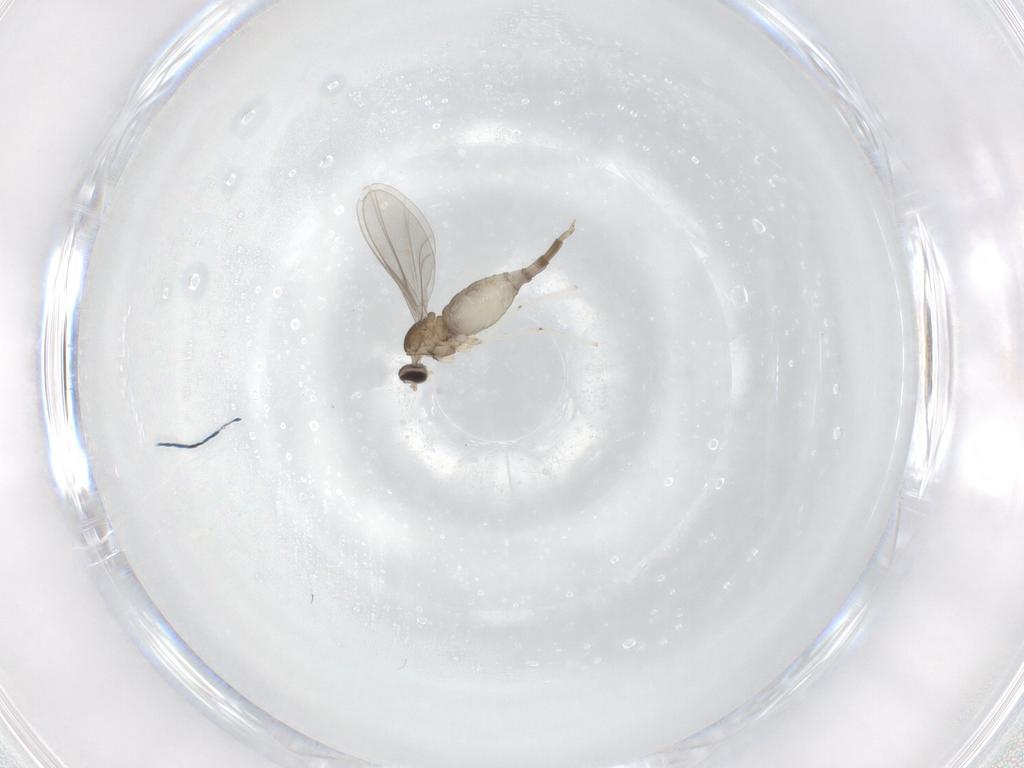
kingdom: Animalia
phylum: Arthropoda
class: Insecta
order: Diptera
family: Cecidomyiidae
